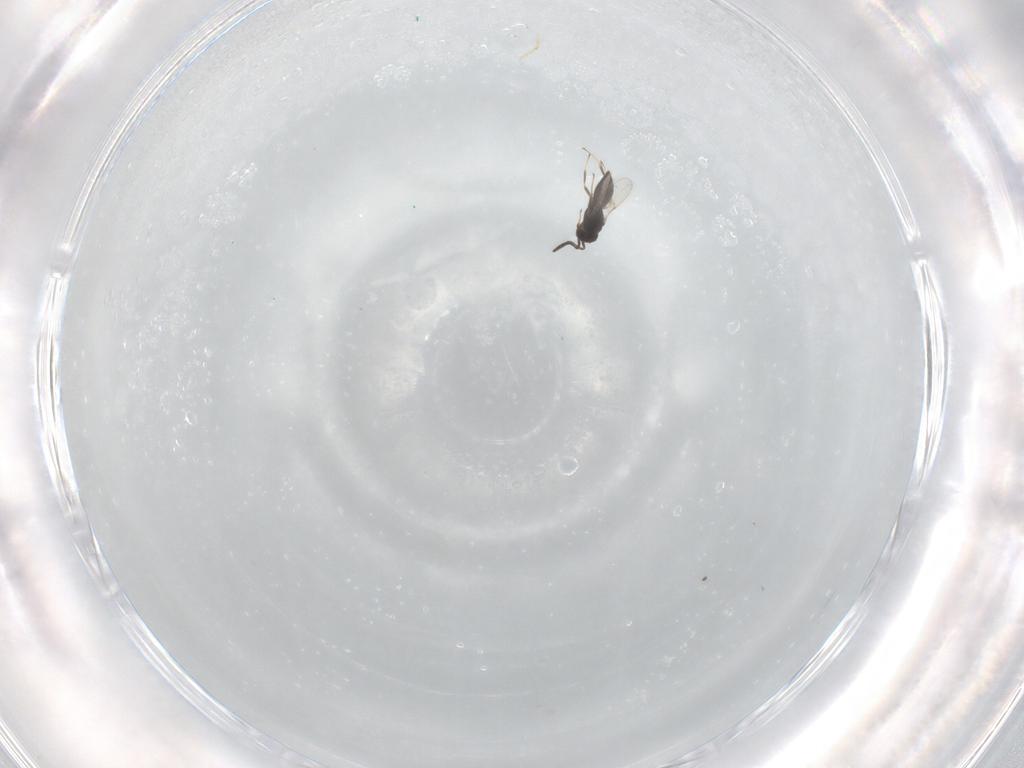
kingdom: Animalia
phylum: Arthropoda
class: Insecta
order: Hymenoptera
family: Scelionidae
